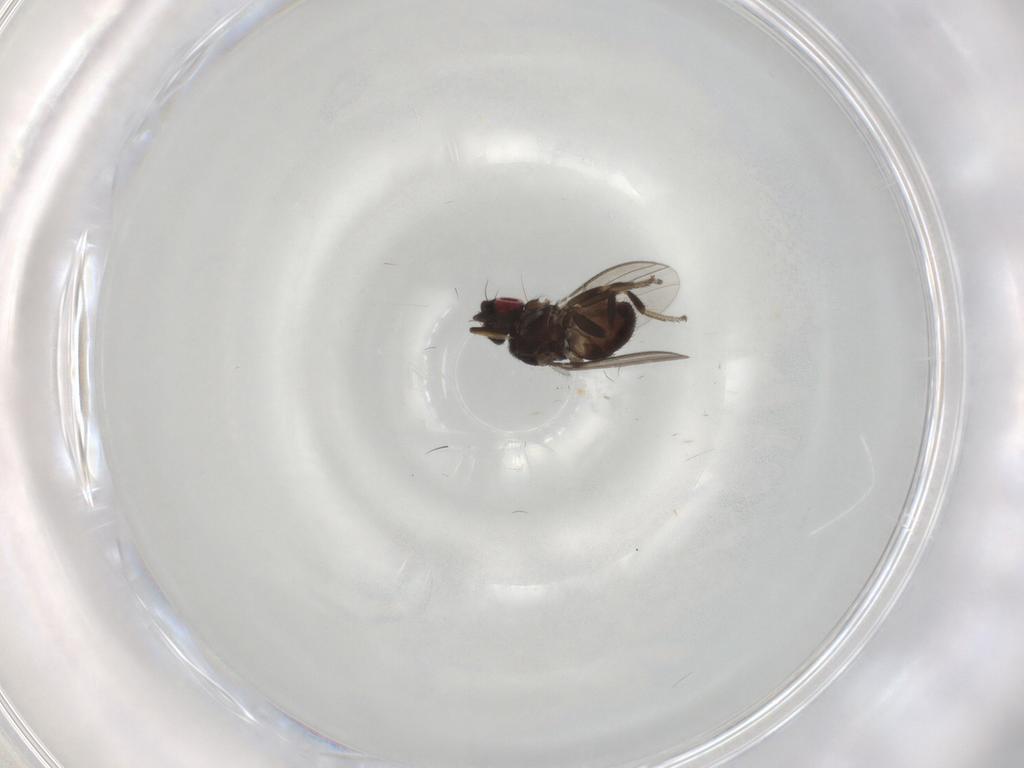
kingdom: Animalia
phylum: Arthropoda
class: Insecta
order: Diptera
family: Milichiidae
